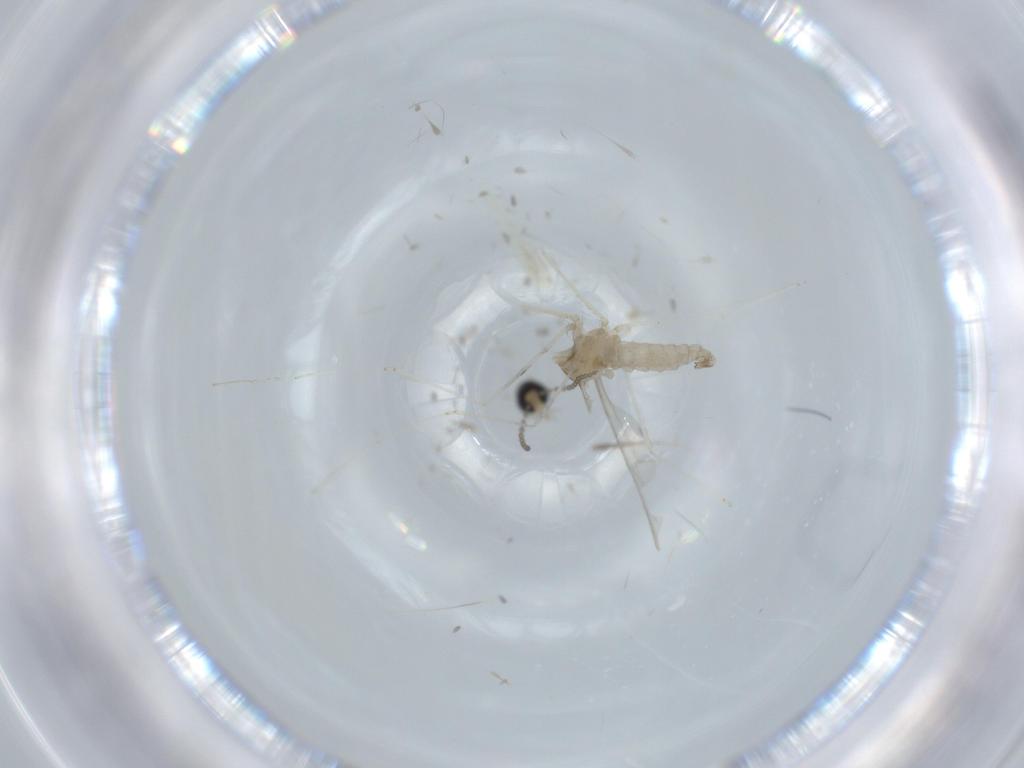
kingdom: Animalia
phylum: Arthropoda
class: Insecta
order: Diptera
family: Cecidomyiidae
